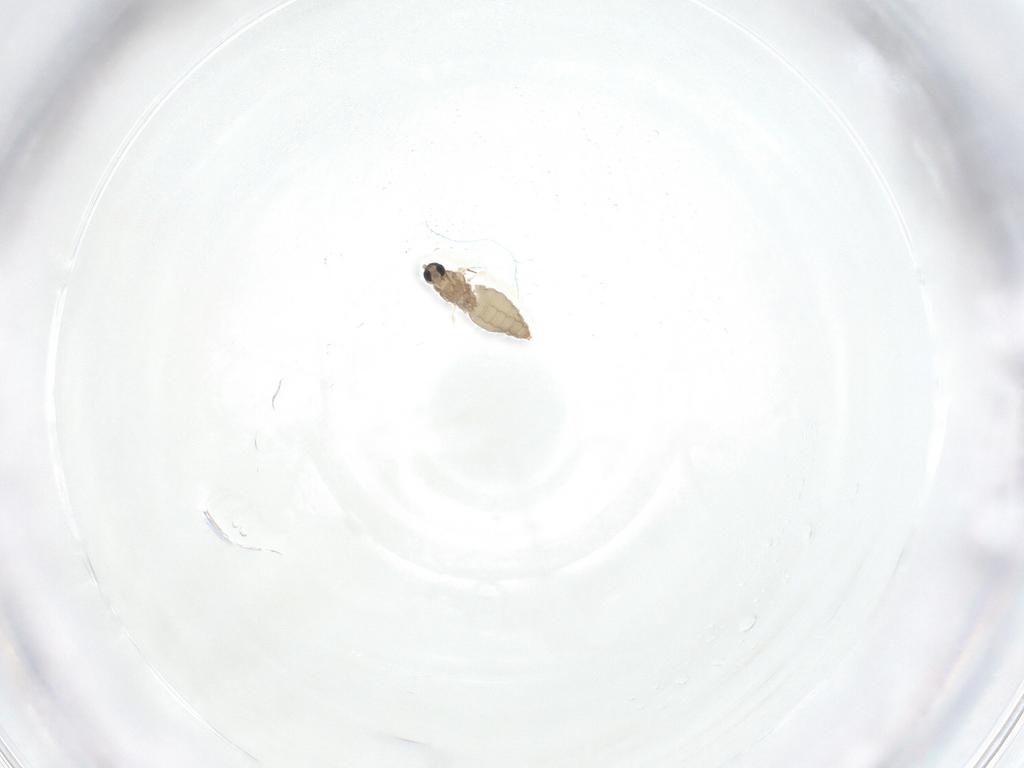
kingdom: Animalia
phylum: Arthropoda
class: Insecta
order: Diptera
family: Cecidomyiidae
